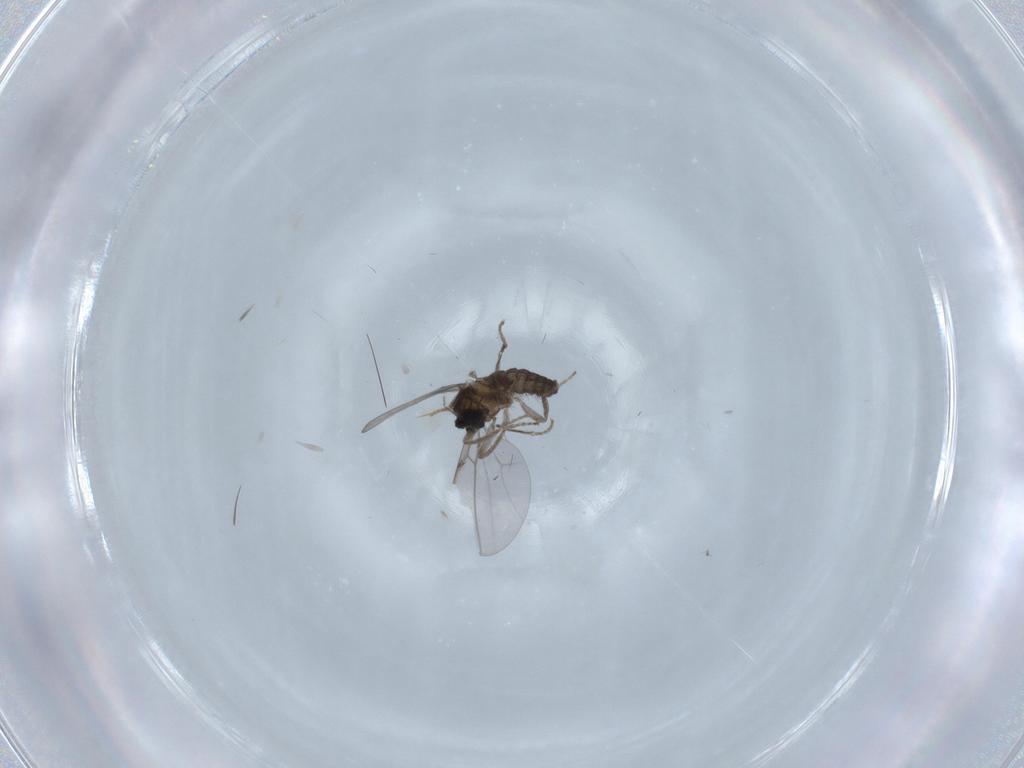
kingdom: Animalia
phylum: Arthropoda
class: Insecta
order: Diptera
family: Cecidomyiidae
